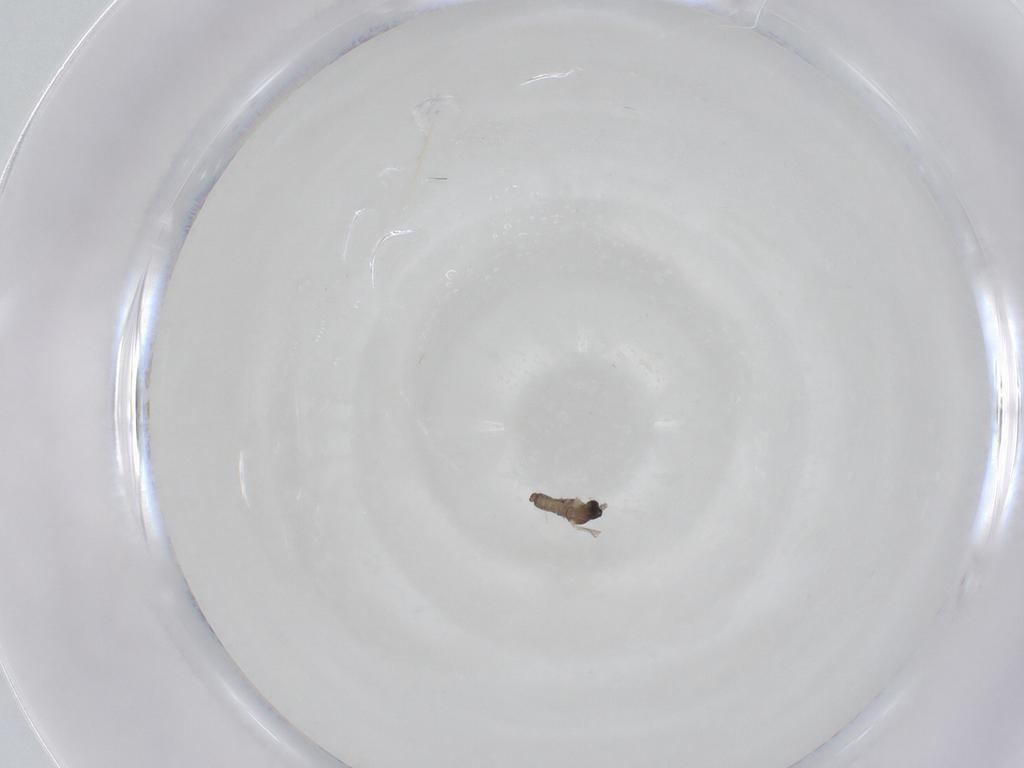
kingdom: Animalia
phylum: Arthropoda
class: Insecta
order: Diptera
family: Cecidomyiidae
